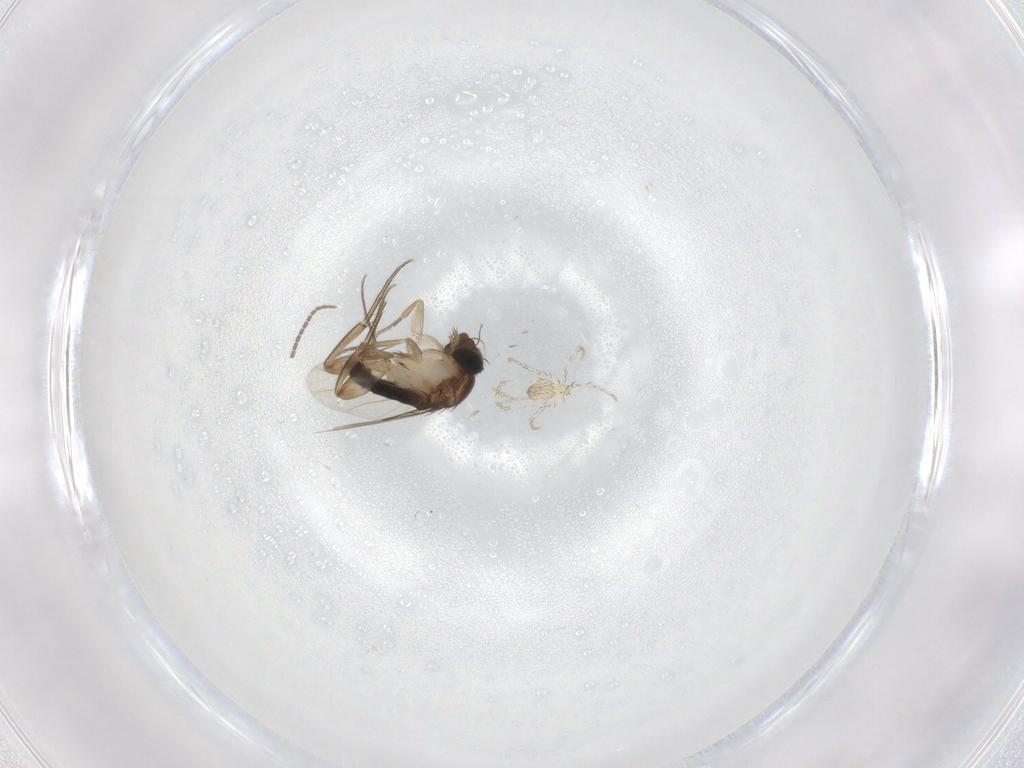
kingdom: Animalia
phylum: Arthropoda
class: Insecta
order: Diptera
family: Phoridae
